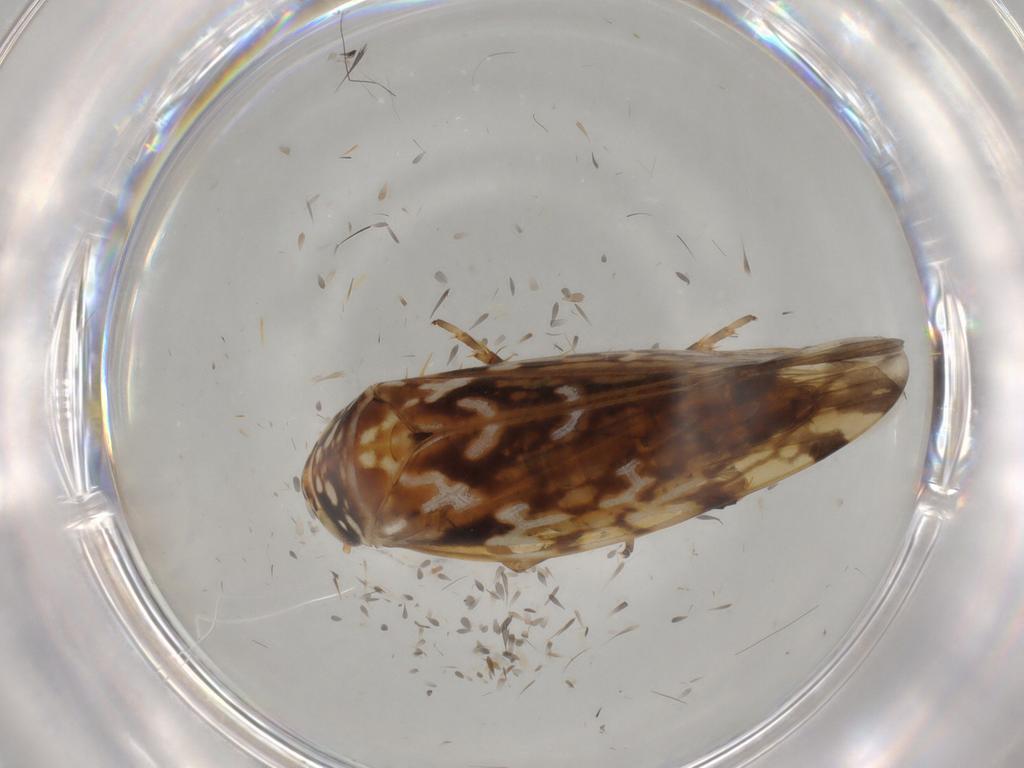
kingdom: Animalia
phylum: Arthropoda
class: Insecta
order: Hemiptera
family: Cicadellidae
